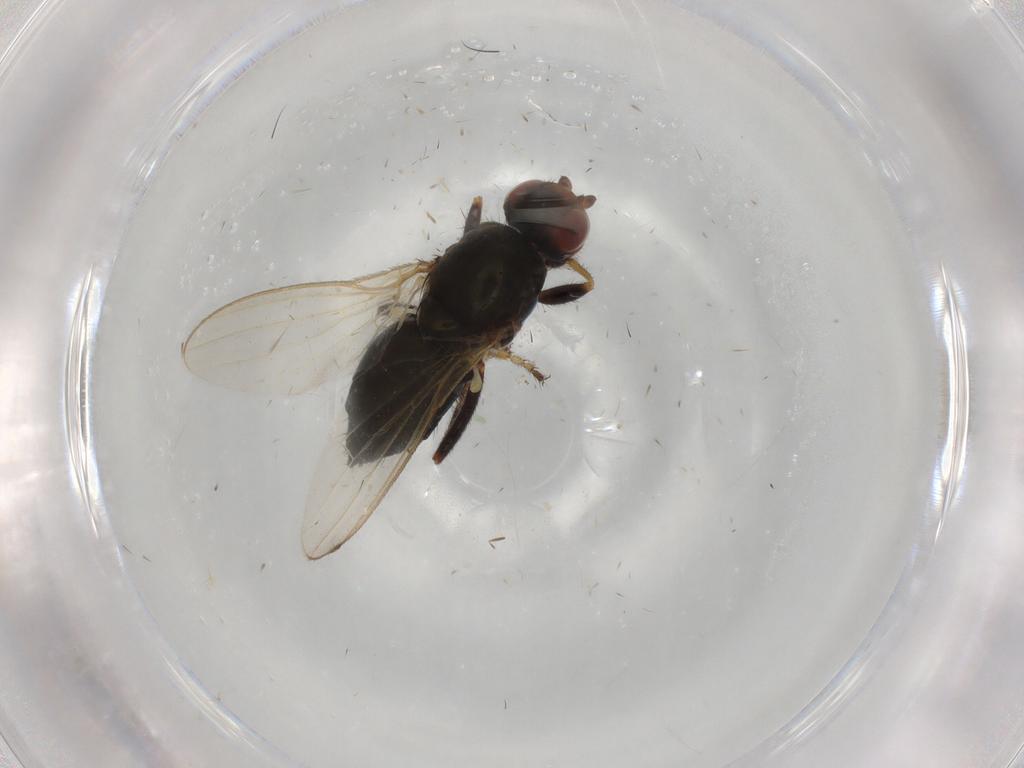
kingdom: Animalia
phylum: Arthropoda
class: Insecta
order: Diptera
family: Sphaeroceridae
